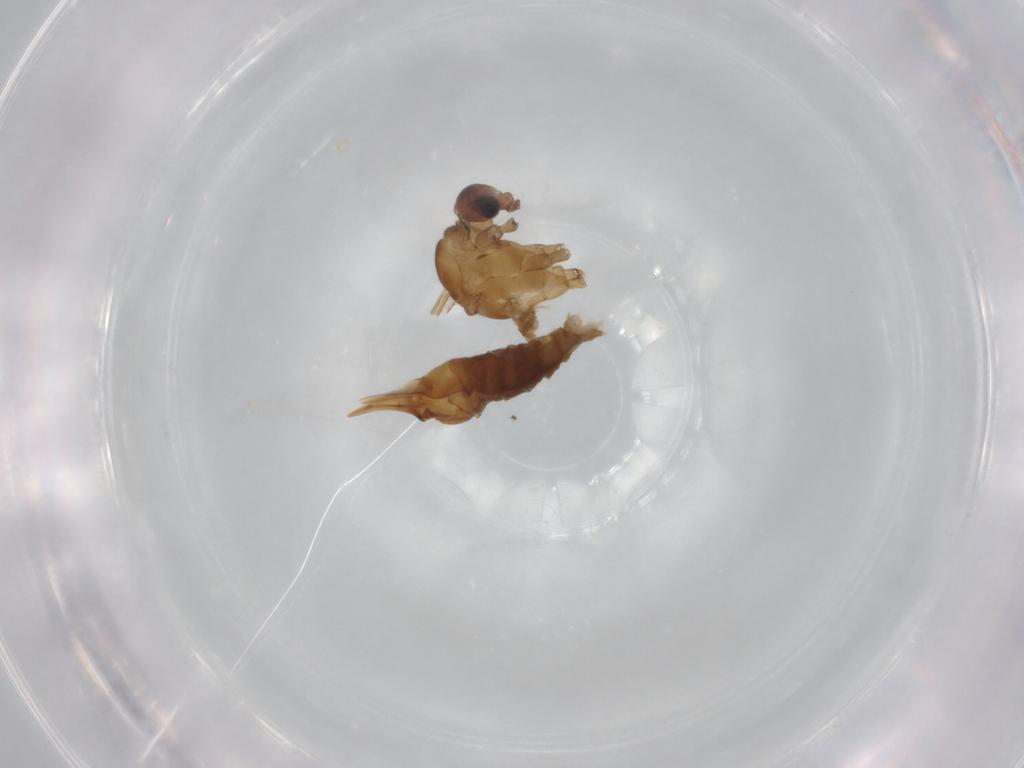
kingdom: Animalia
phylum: Arthropoda
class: Insecta
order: Diptera
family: Limoniidae
